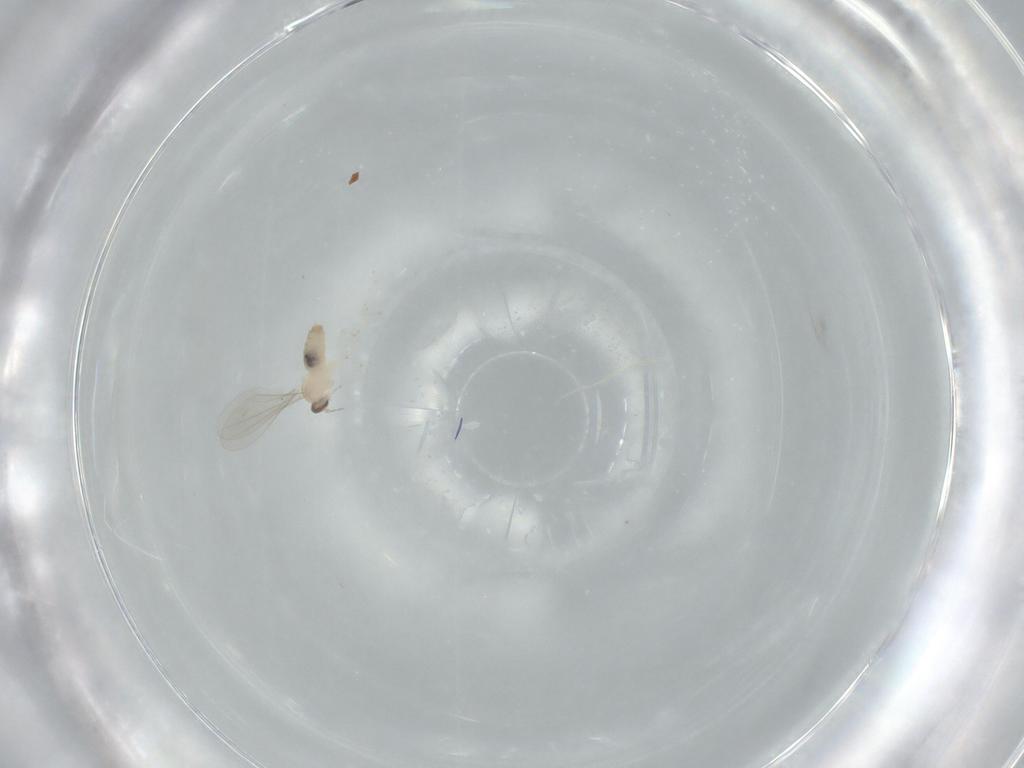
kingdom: Animalia
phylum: Arthropoda
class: Insecta
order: Diptera
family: Cecidomyiidae
